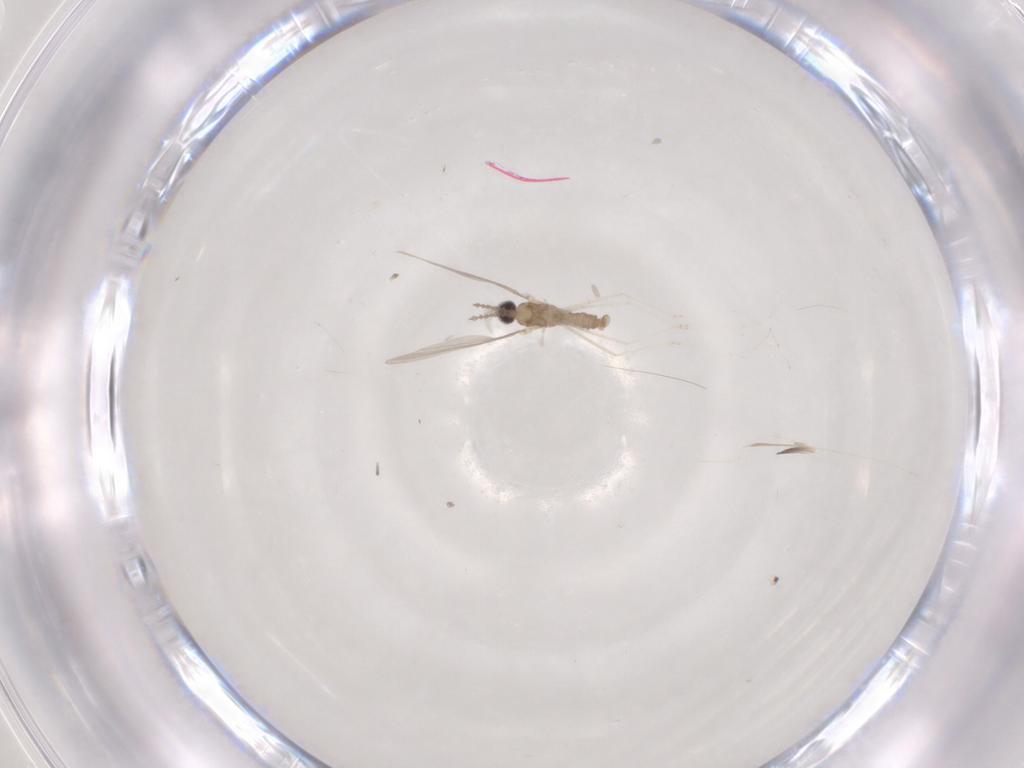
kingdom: Animalia
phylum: Arthropoda
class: Insecta
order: Diptera
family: Cecidomyiidae
